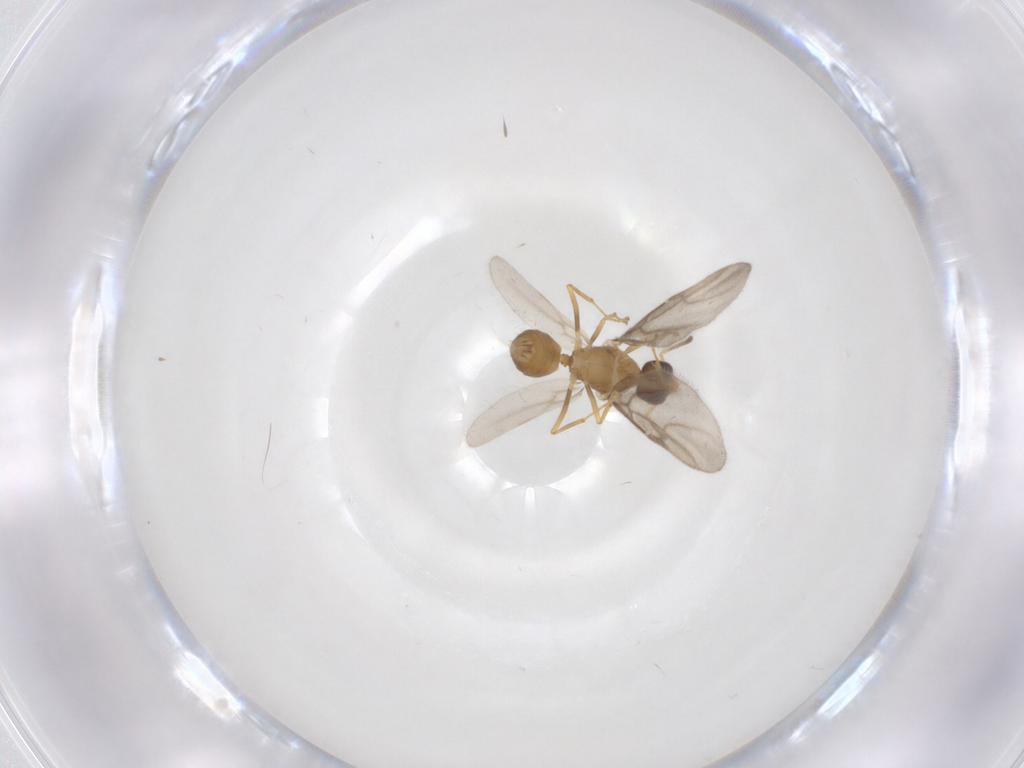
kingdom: Animalia
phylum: Arthropoda
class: Insecta
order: Hymenoptera
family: Formicidae
